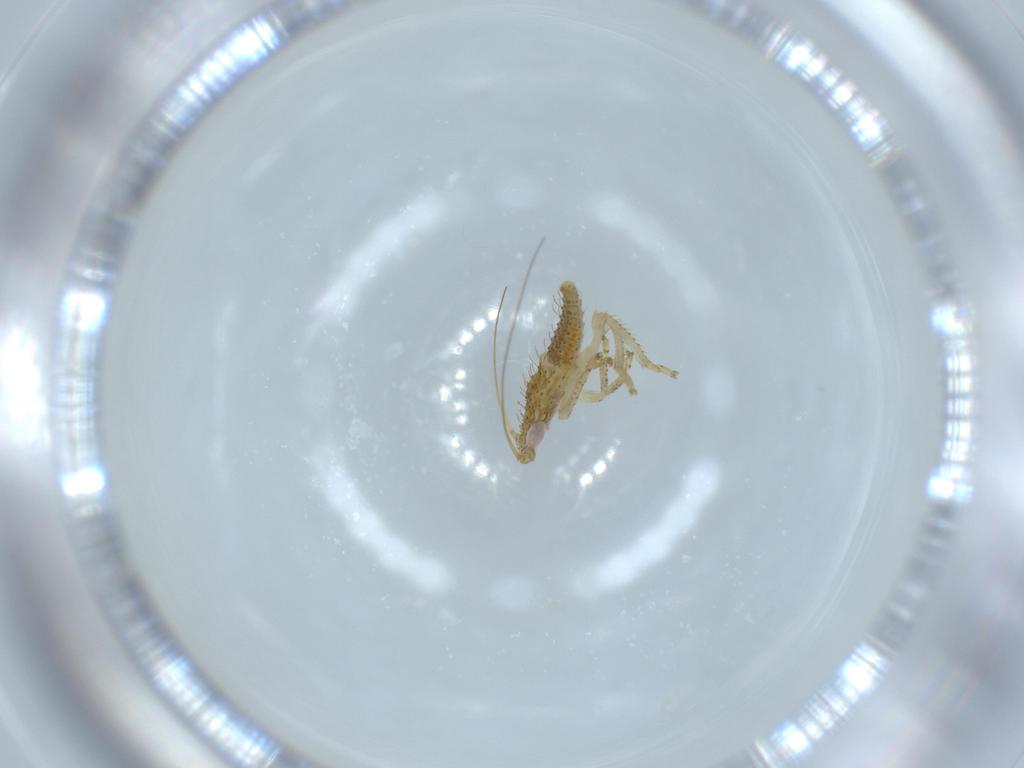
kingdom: Animalia
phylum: Arthropoda
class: Insecta
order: Hemiptera
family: Cicadellidae
